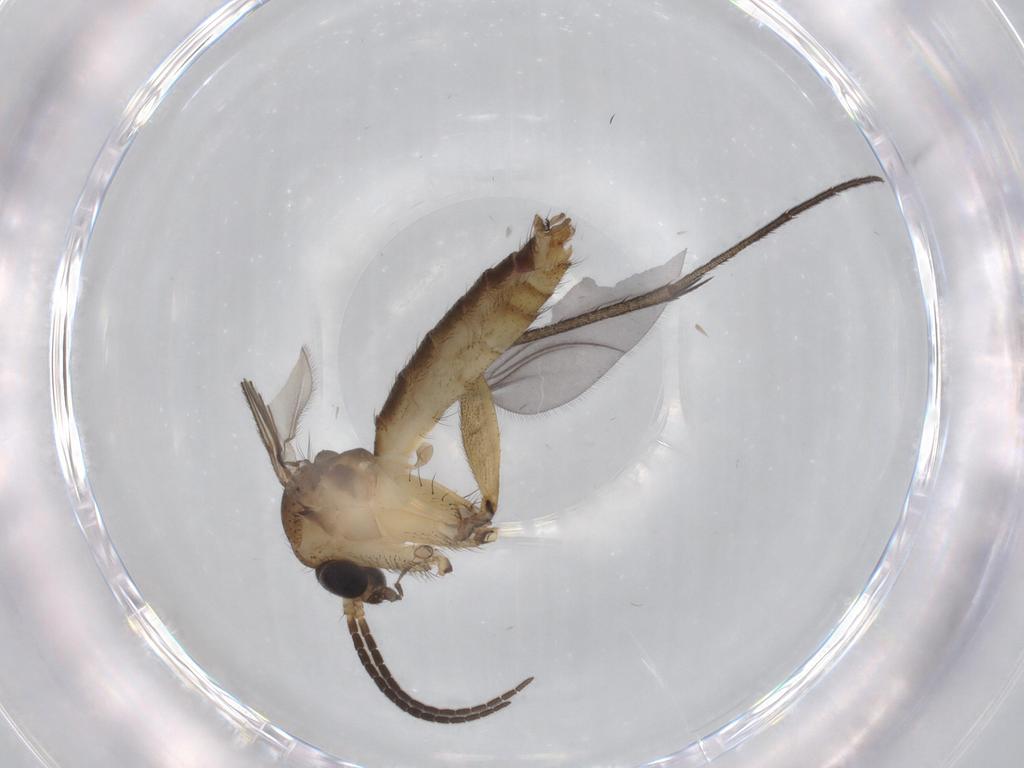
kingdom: Animalia
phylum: Arthropoda
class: Insecta
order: Diptera
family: Cecidomyiidae
